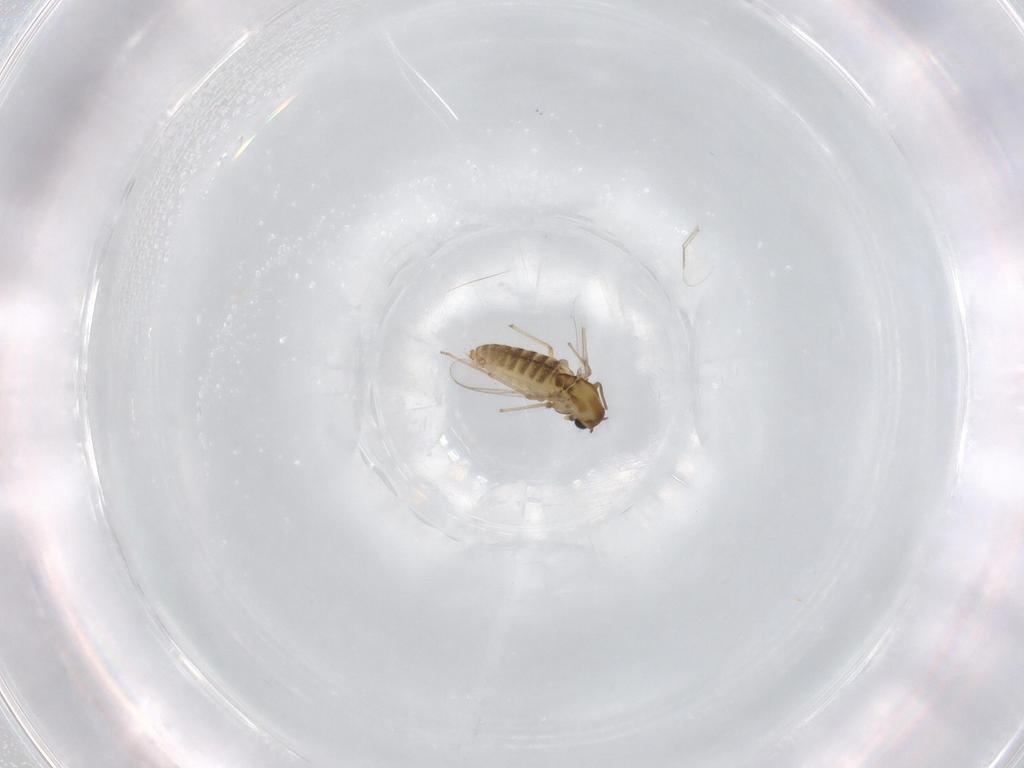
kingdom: Animalia
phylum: Arthropoda
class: Insecta
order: Diptera
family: Chironomidae
